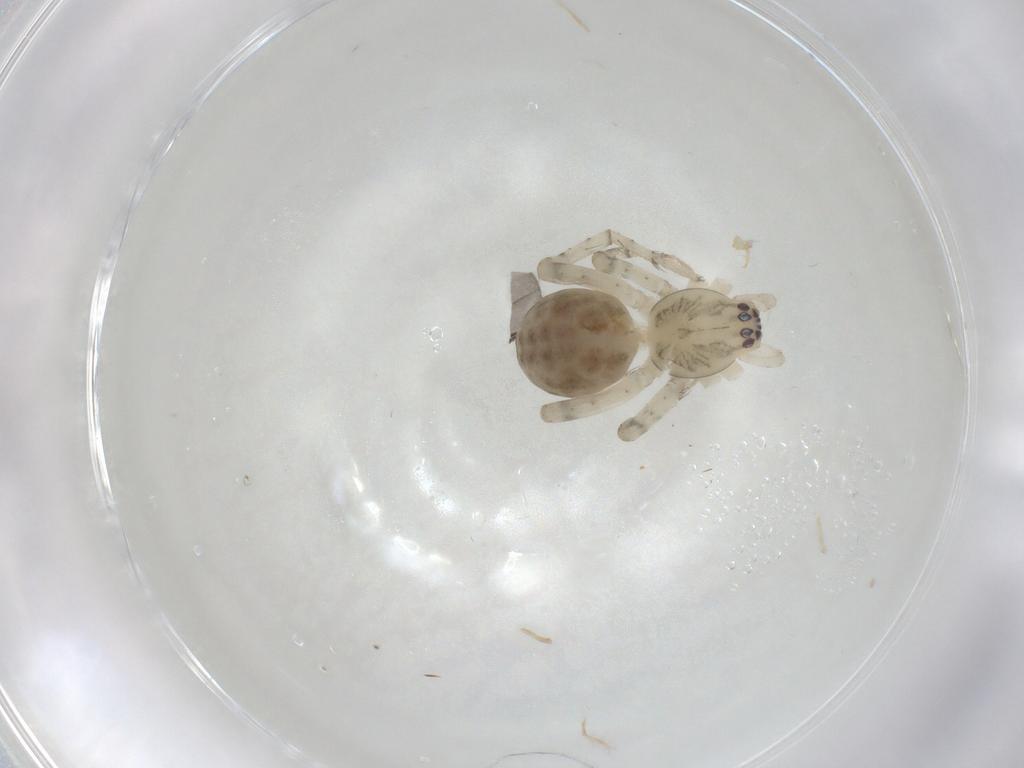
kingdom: Animalia
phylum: Arthropoda
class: Arachnida
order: Araneae
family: Anyphaenidae
